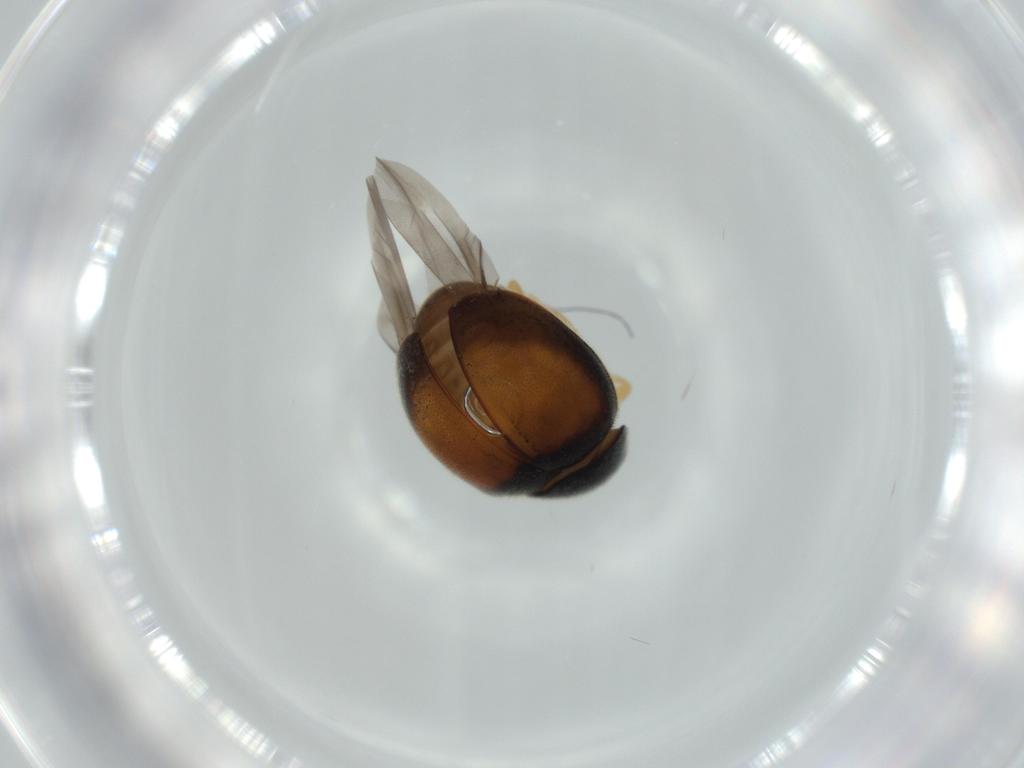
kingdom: Animalia
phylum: Arthropoda
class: Insecta
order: Coleoptera
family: Coccinellidae
